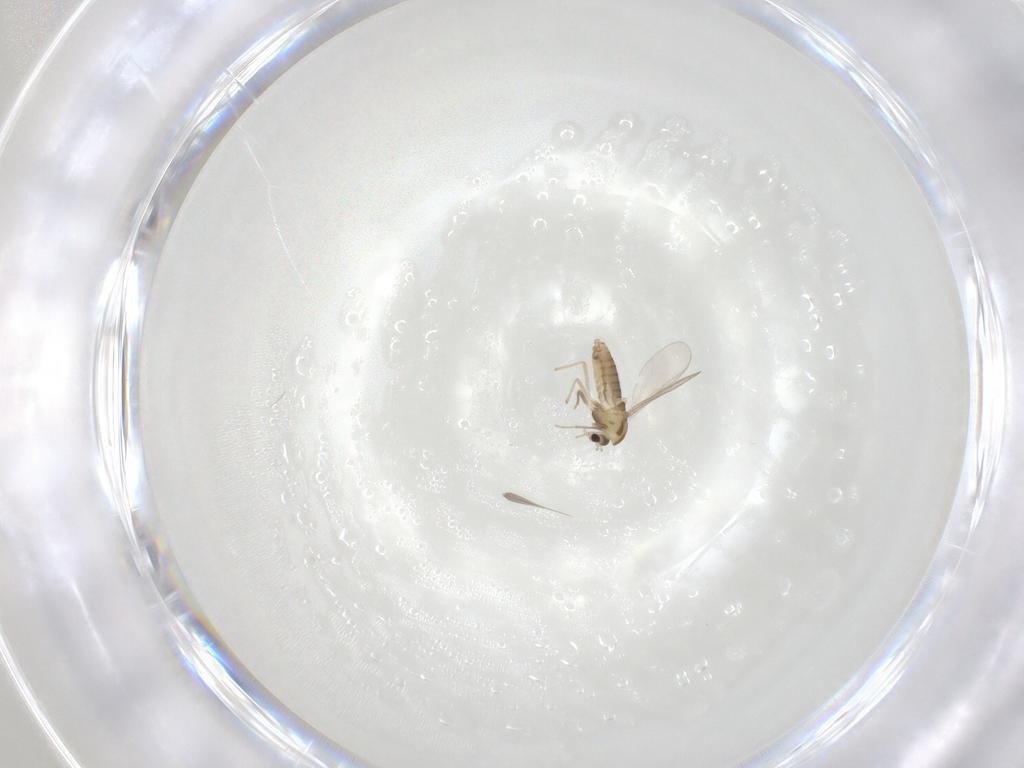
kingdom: Animalia
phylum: Arthropoda
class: Insecta
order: Diptera
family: Chironomidae
